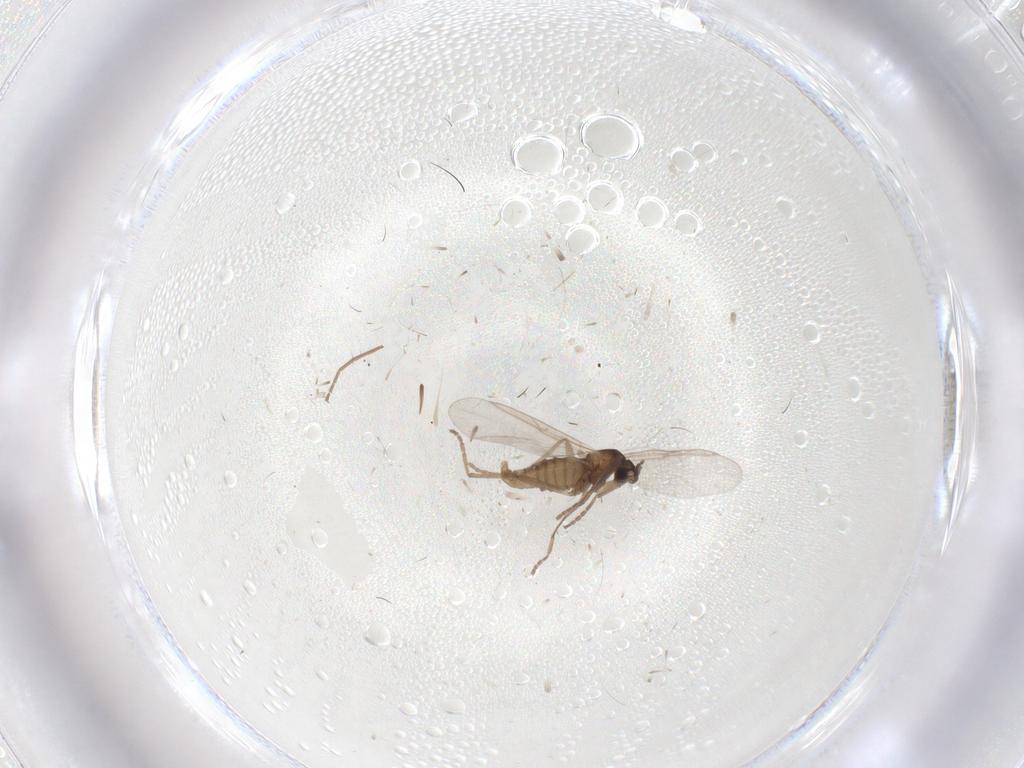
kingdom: Animalia
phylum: Arthropoda
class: Insecta
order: Diptera
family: Cecidomyiidae
